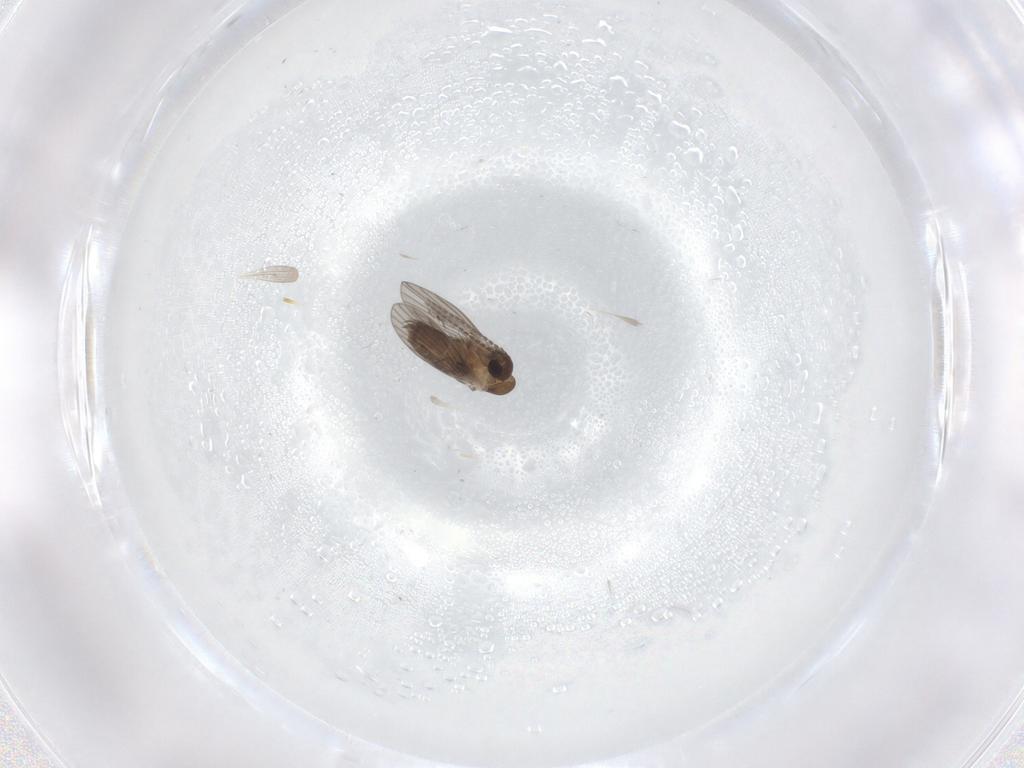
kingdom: Animalia
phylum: Arthropoda
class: Insecta
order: Diptera
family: Psychodidae
